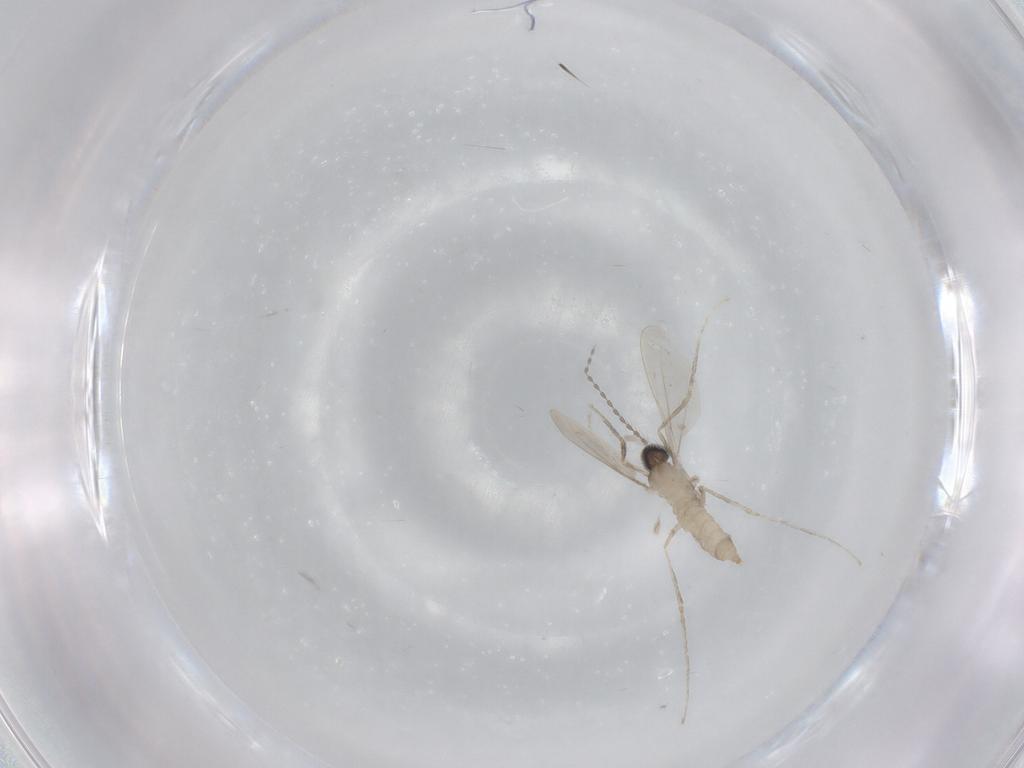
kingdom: Animalia
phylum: Arthropoda
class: Insecta
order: Diptera
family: Cecidomyiidae
